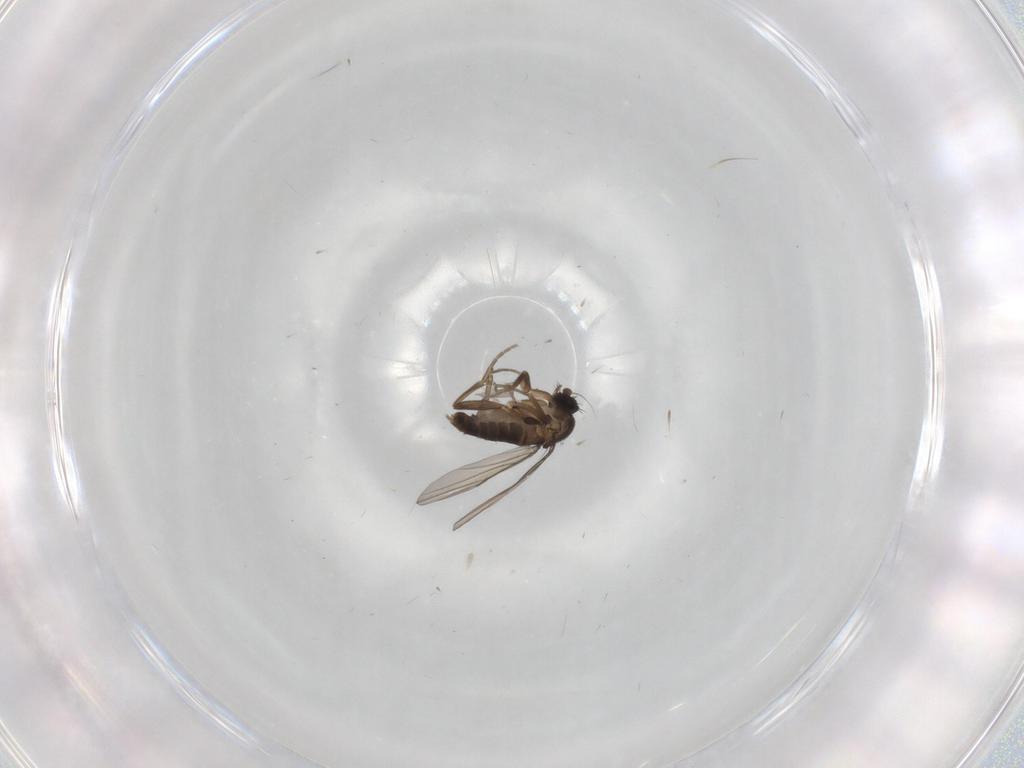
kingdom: Animalia
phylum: Arthropoda
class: Insecta
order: Diptera
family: Phoridae
